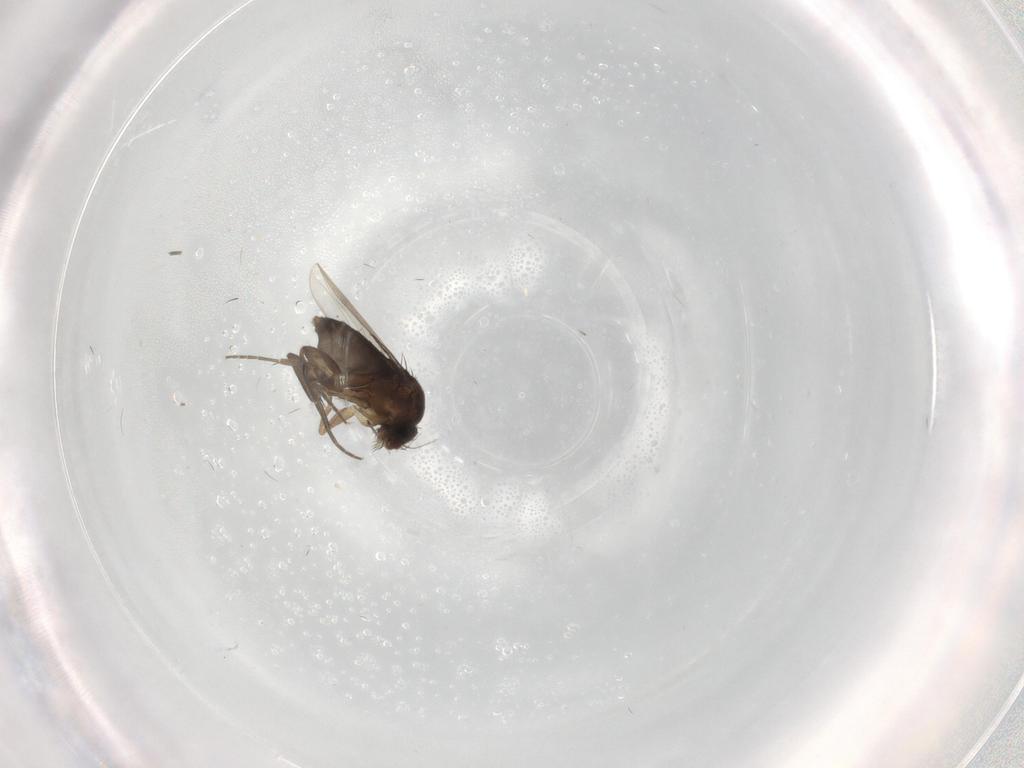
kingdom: Animalia
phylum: Arthropoda
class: Insecta
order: Diptera
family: Phoridae
